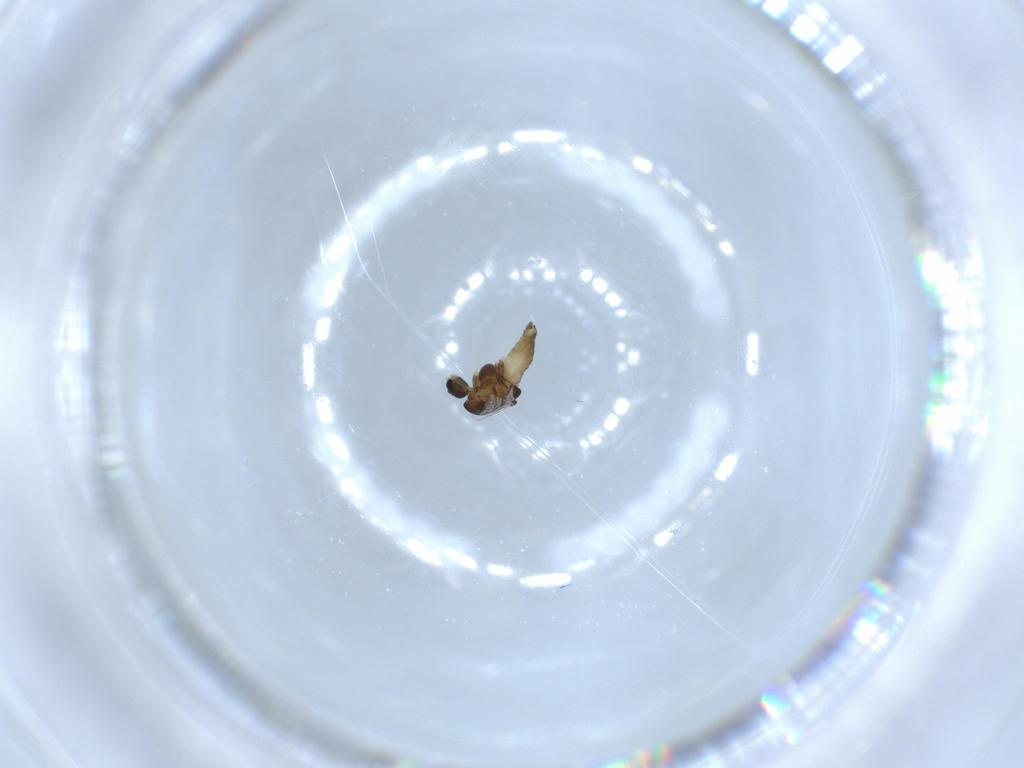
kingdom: Animalia
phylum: Arthropoda
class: Insecta
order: Diptera
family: Chironomidae
